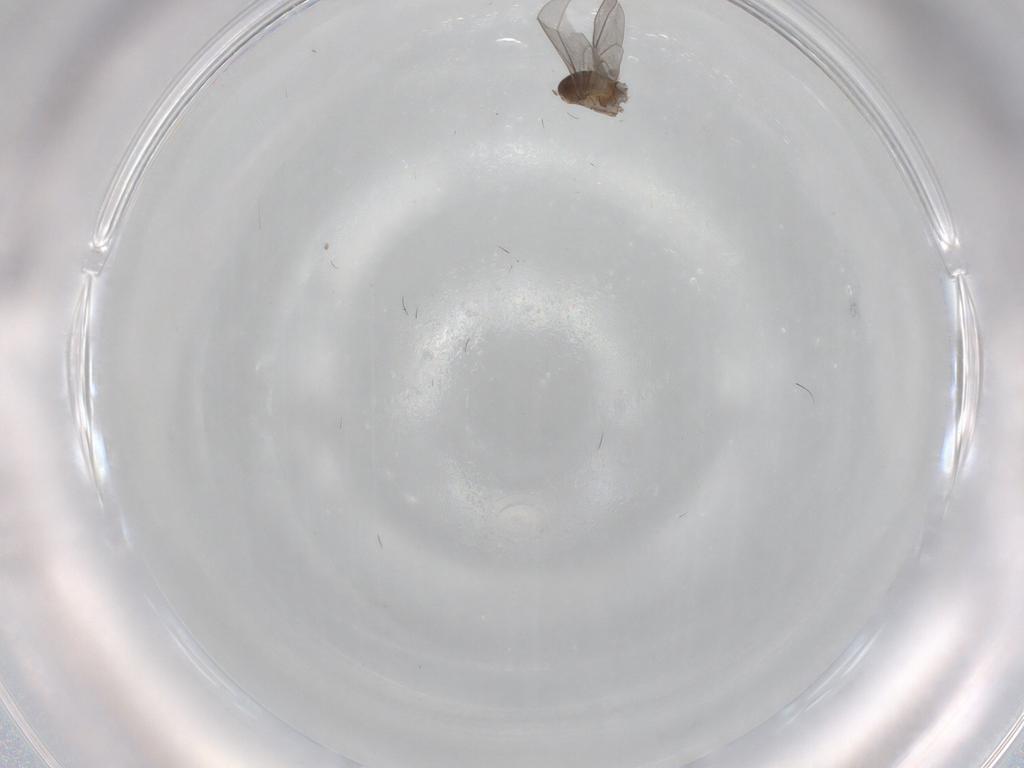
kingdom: Animalia
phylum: Arthropoda
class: Insecta
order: Diptera
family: Cecidomyiidae
